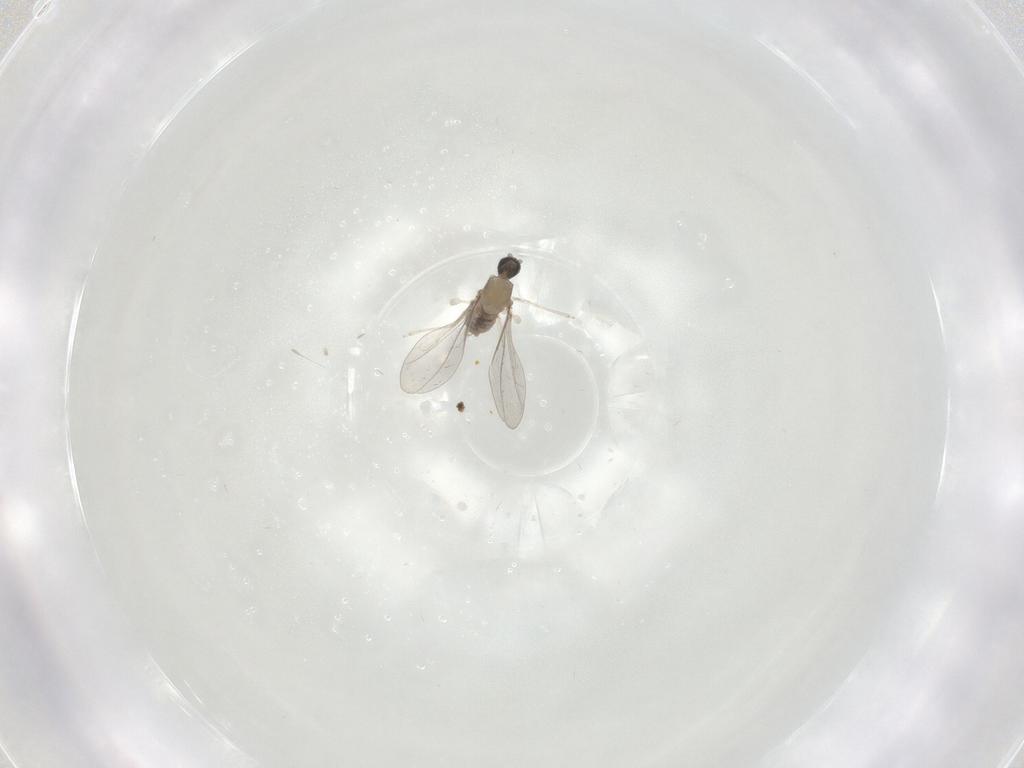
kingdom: Animalia
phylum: Arthropoda
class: Insecta
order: Diptera
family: Cecidomyiidae
